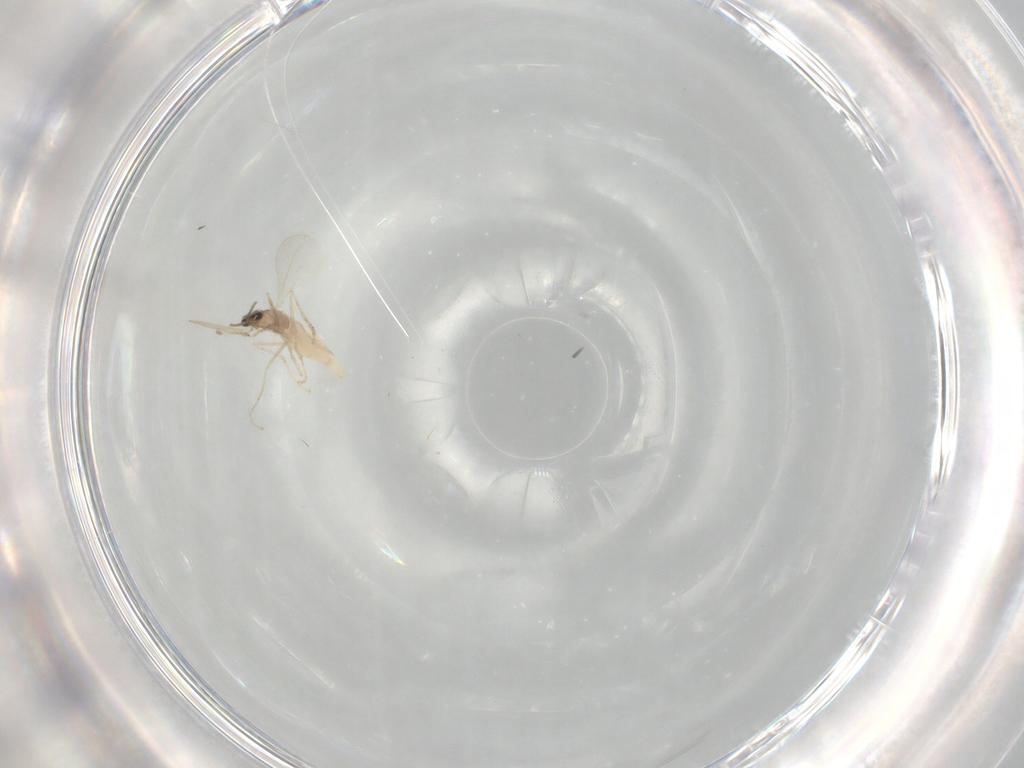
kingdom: Animalia
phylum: Arthropoda
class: Insecta
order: Diptera
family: Cecidomyiidae
